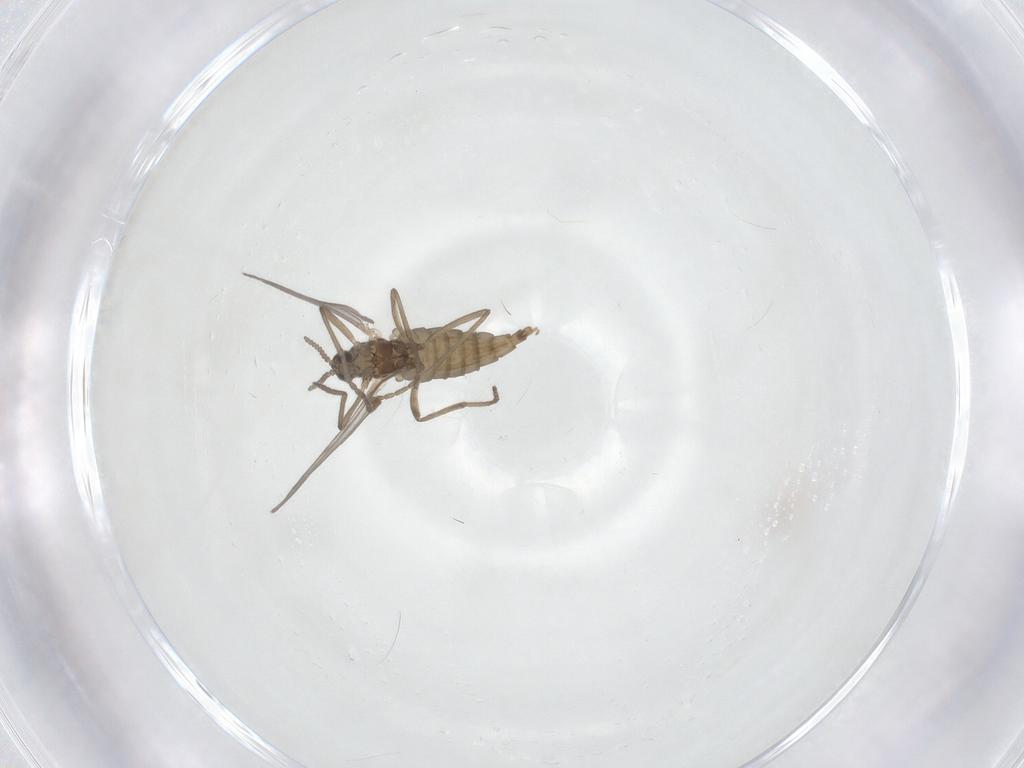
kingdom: Animalia
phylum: Arthropoda
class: Insecta
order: Diptera
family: Cecidomyiidae
